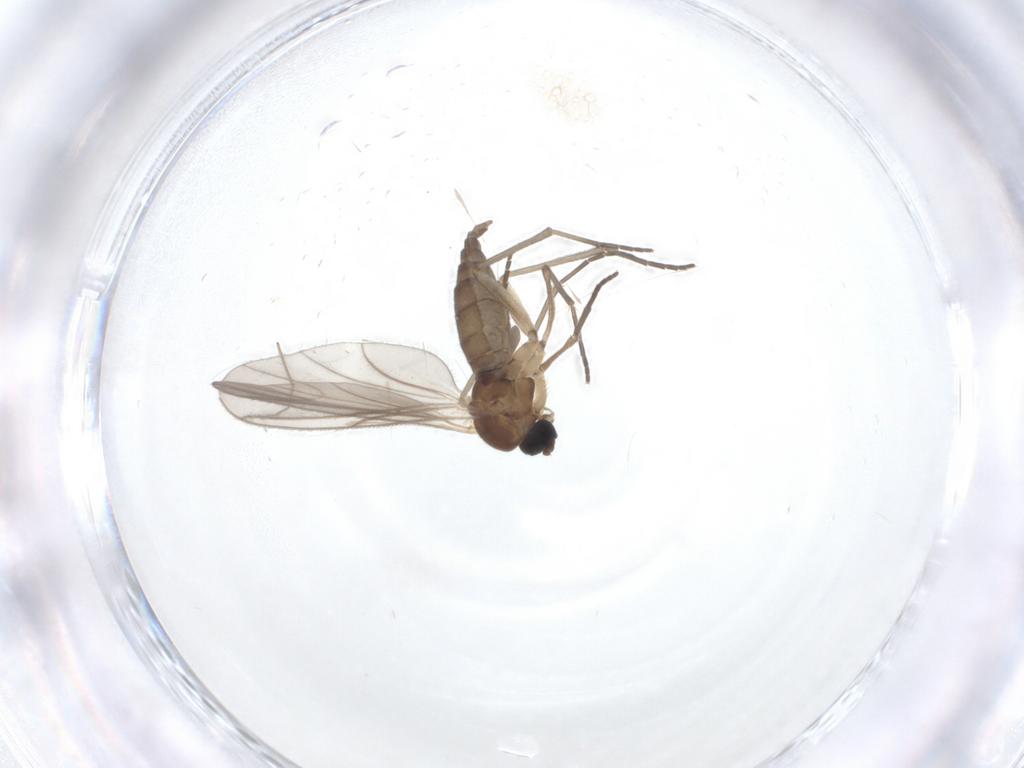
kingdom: Animalia
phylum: Arthropoda
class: Insecta
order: Diptera
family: Sciaridae
